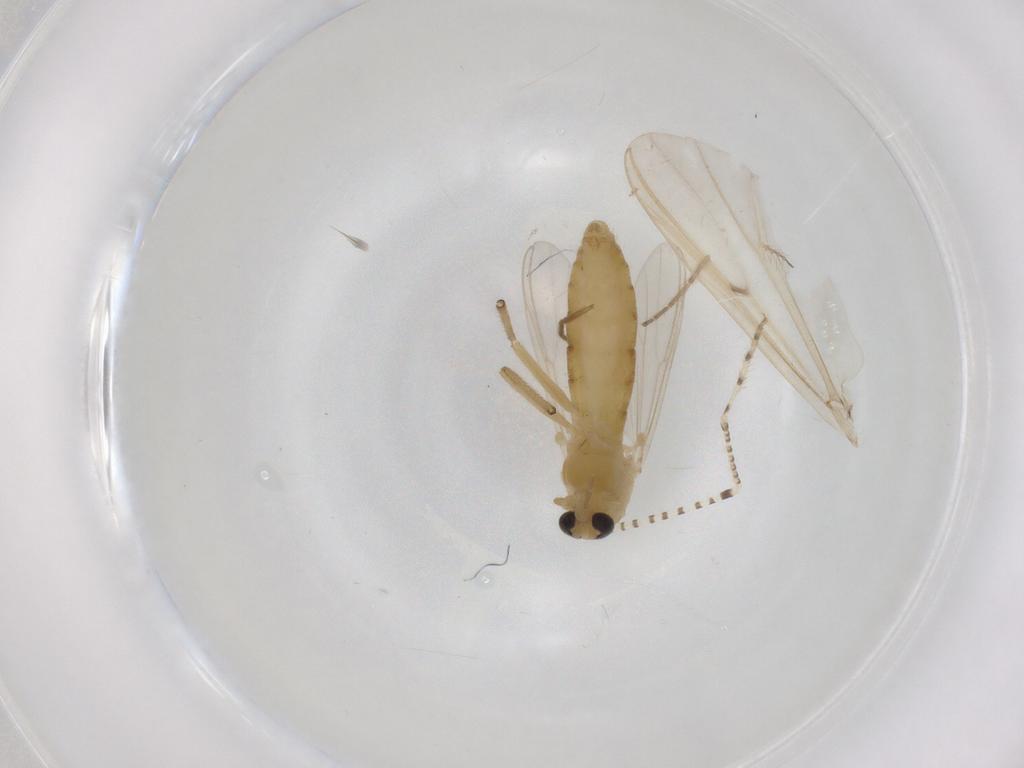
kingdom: Animalia
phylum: Arthropoda
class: Insecta
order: Diptera
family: Chironomidae
